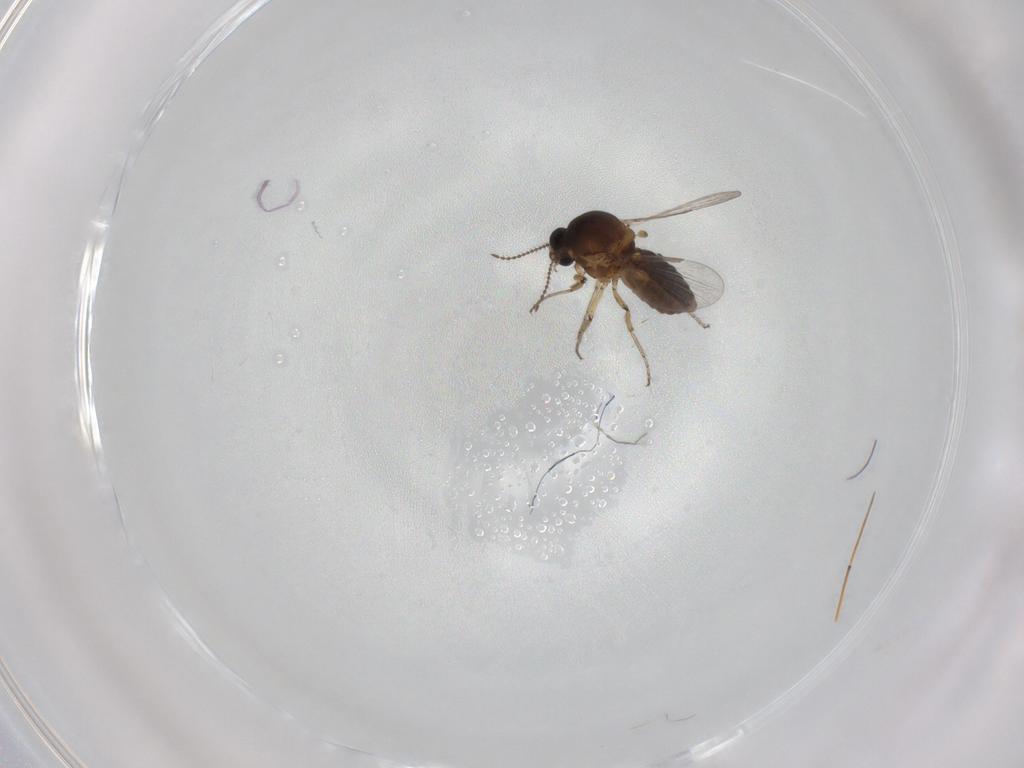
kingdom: Animalia
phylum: Arthropoda
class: Insecta
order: Diptera
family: Ceratopogonidae
